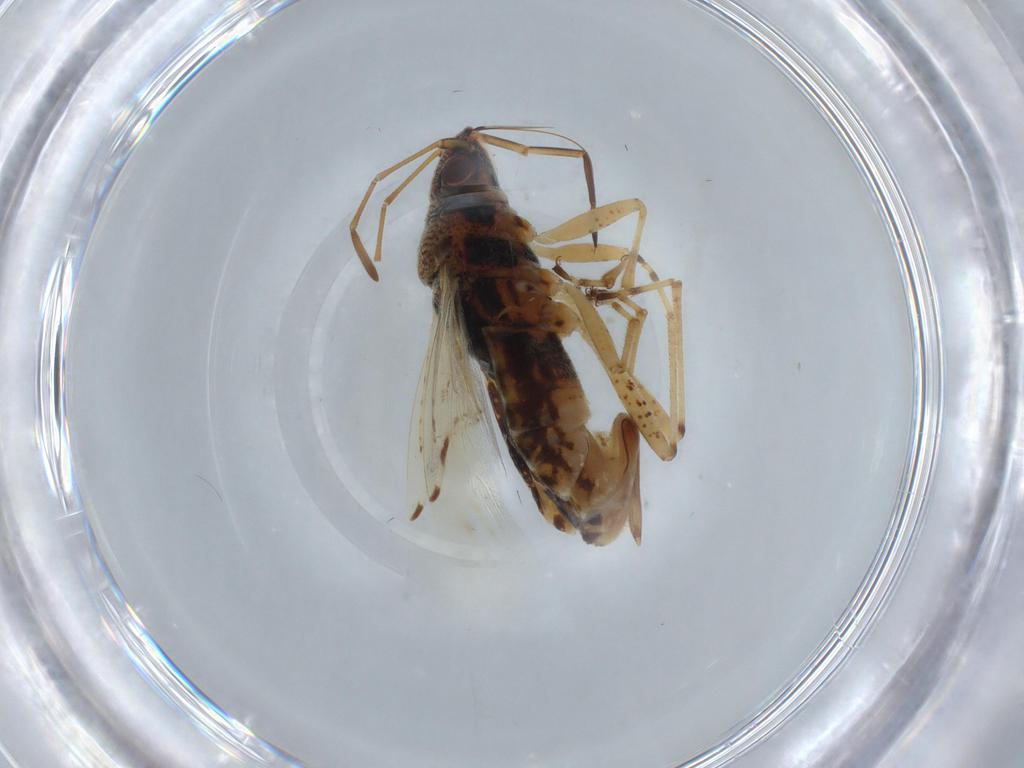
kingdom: Animalia
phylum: Arthropoda
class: Insecta
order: Hemiptera
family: Lygaeidae
